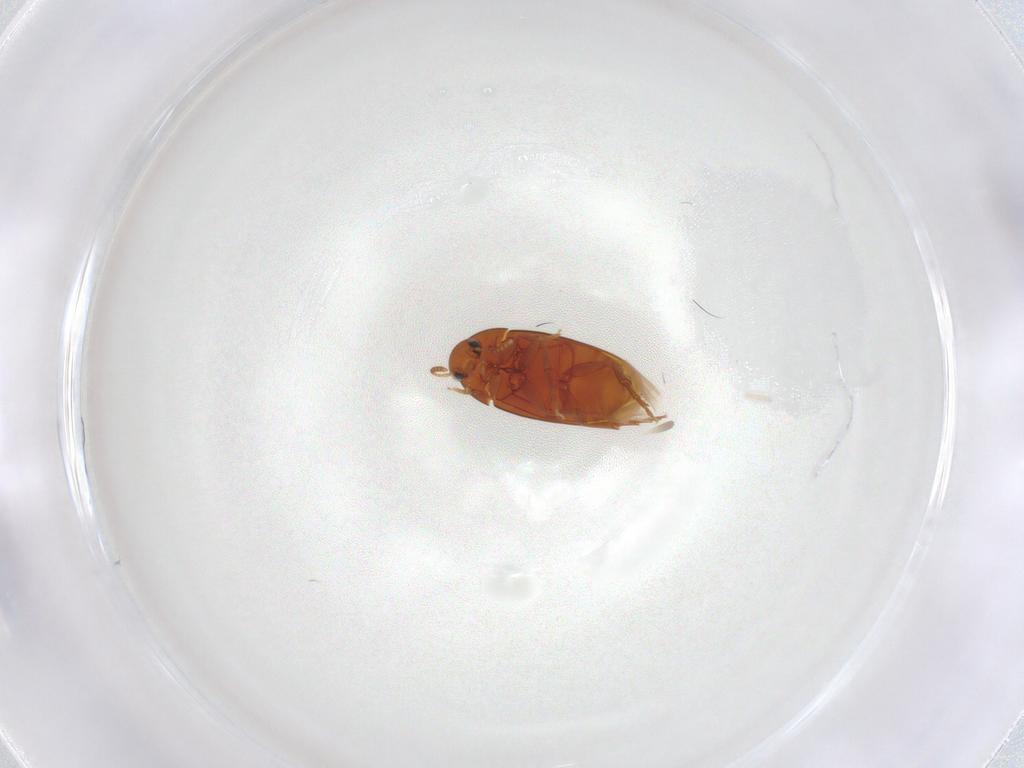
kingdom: Animalia
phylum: Arthropoda
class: Insecta
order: Coleoptera
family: Scraptiidae
